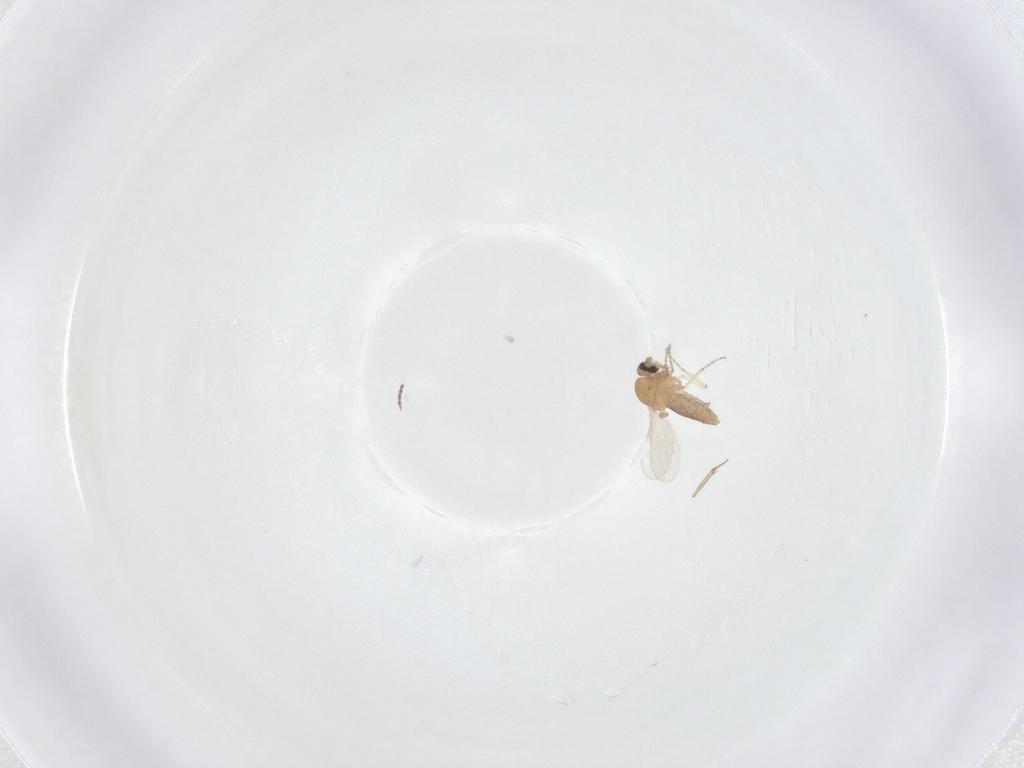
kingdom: Animalia
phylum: Arthropoda
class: Insecta
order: Diptera
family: Ceratopogonidae
